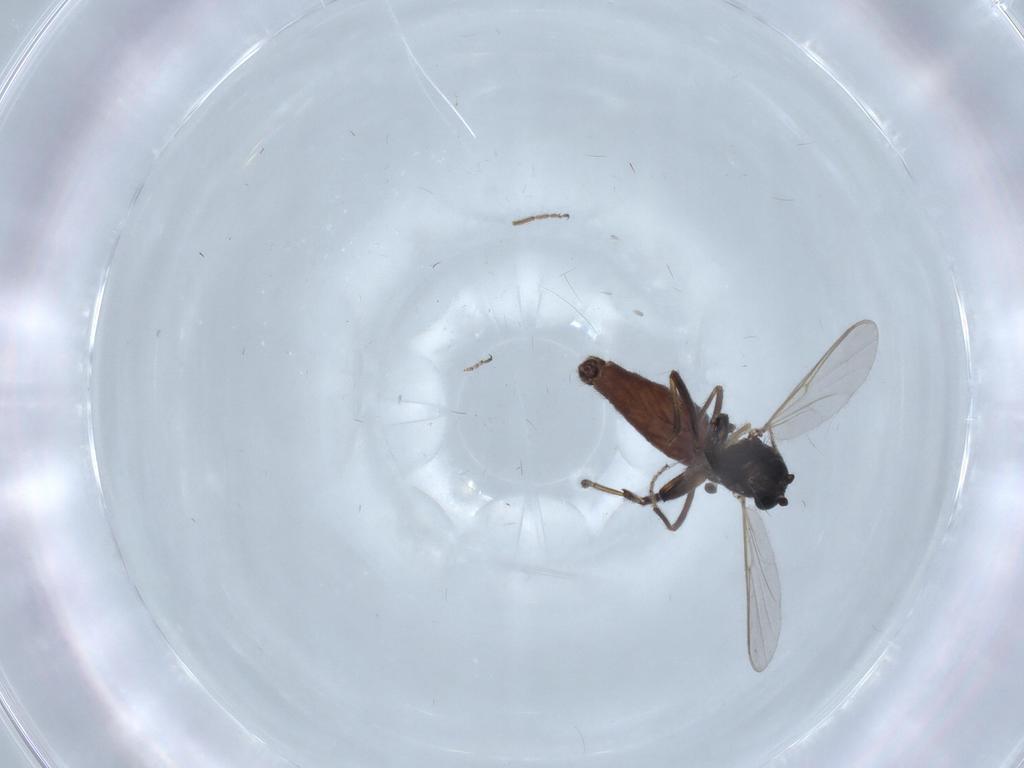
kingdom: Animalia
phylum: Arthropoda
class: Insecta
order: Diptera
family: Ceratopogonidae
